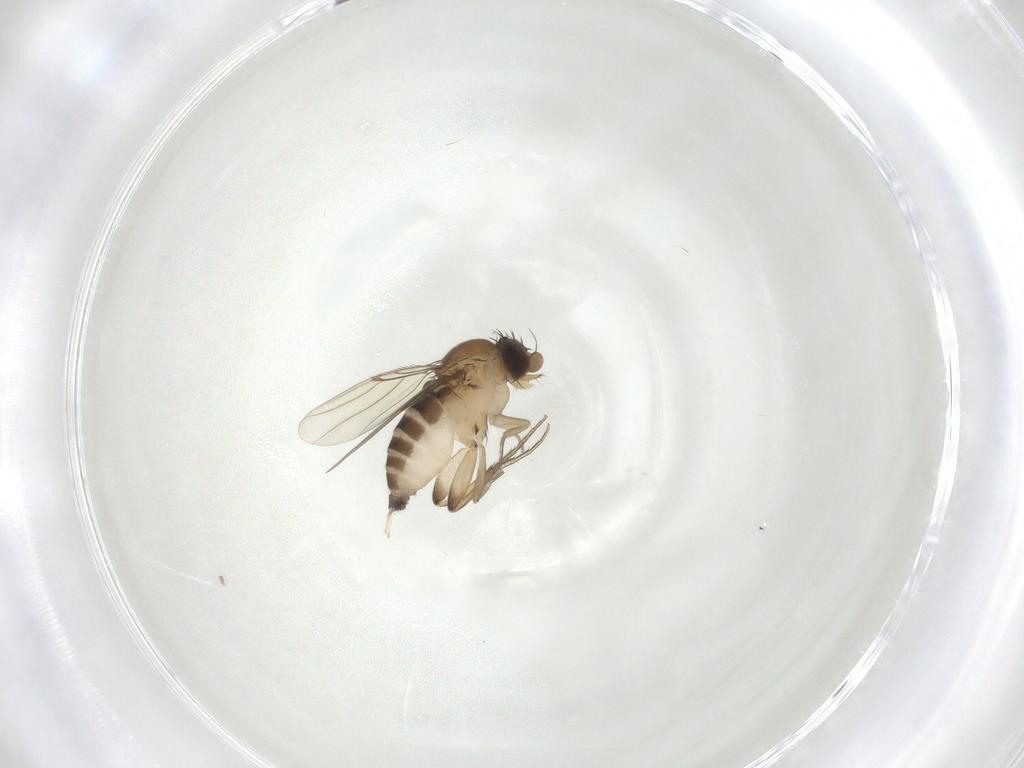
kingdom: Animalia
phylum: Arthropoda
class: Insecta
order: Diptera
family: Phoridae
